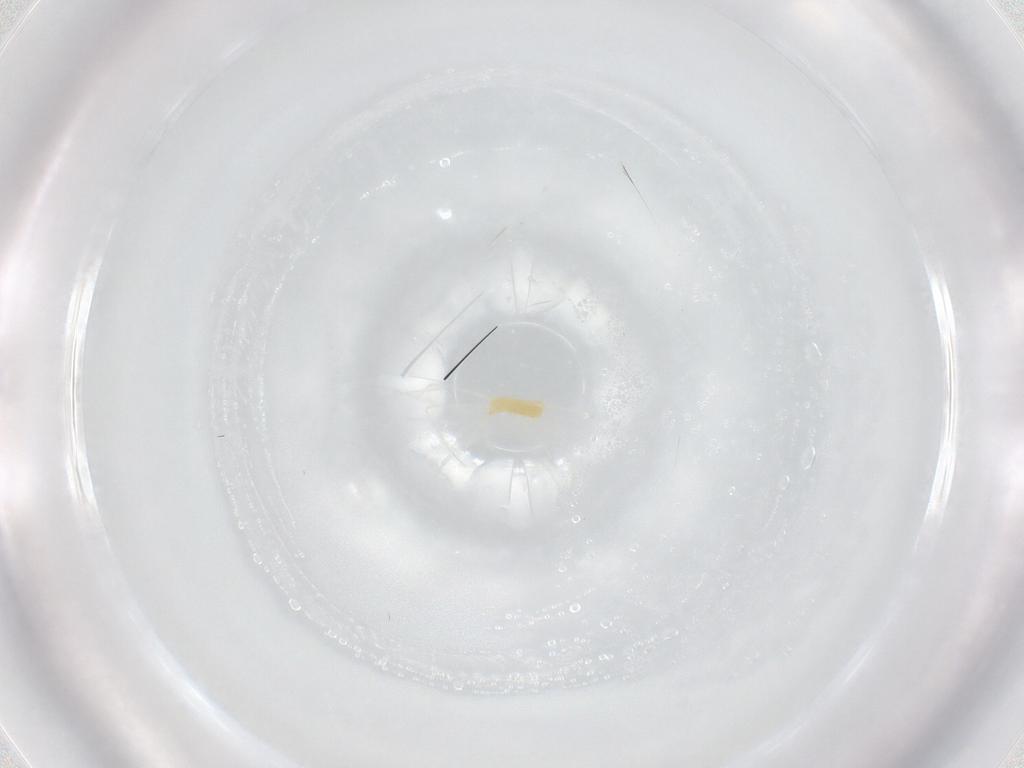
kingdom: Animalia
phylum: Arthropoda
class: Arachnida
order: Trombidiformes
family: Tetranychidae
